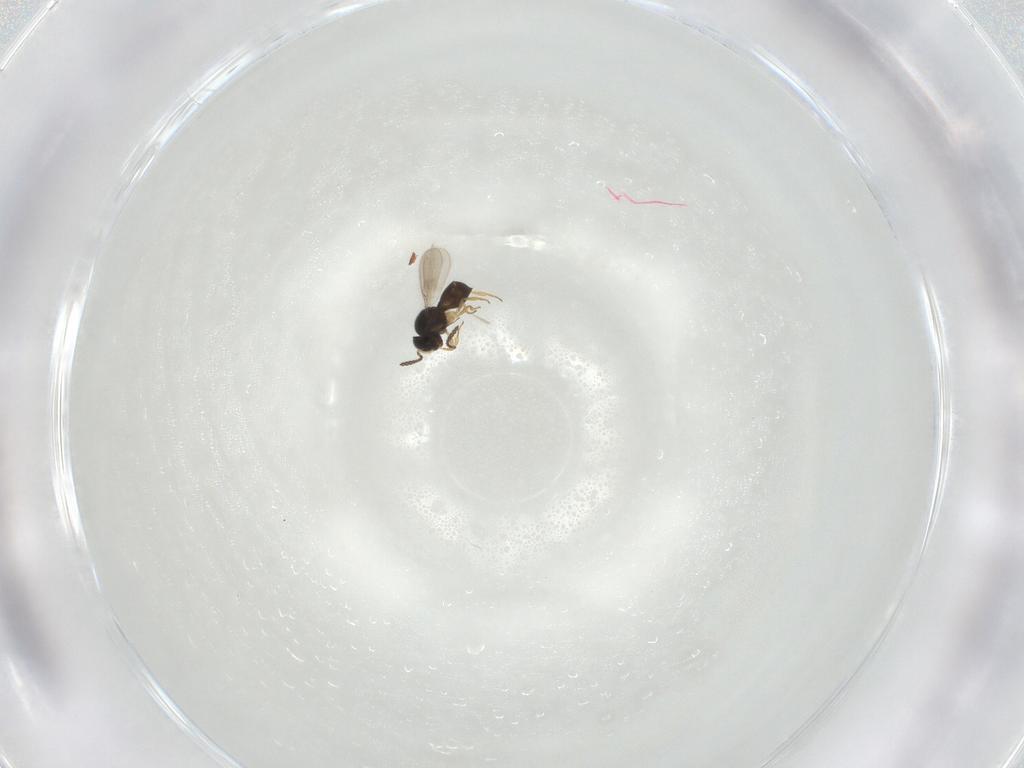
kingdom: Animalia
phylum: Arthropoda
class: Insecta
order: Hymenoptera
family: Scelionidae
